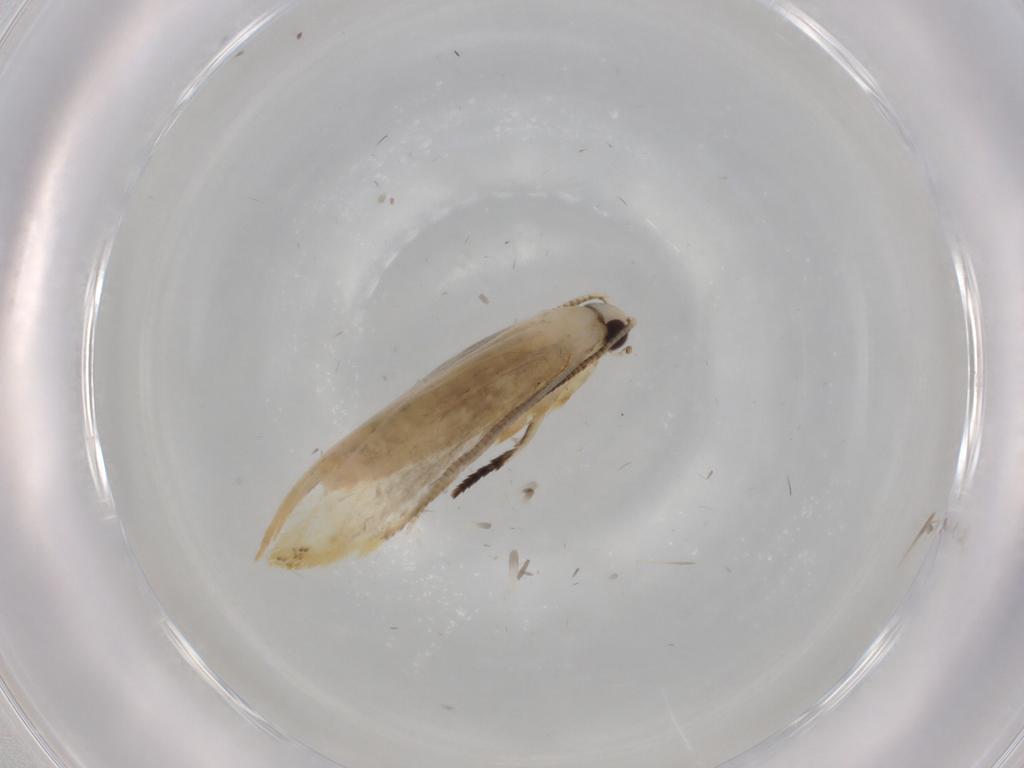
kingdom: Animalia
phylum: Arthropoda
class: Insecta
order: Lepidoptera
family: Tineidae
